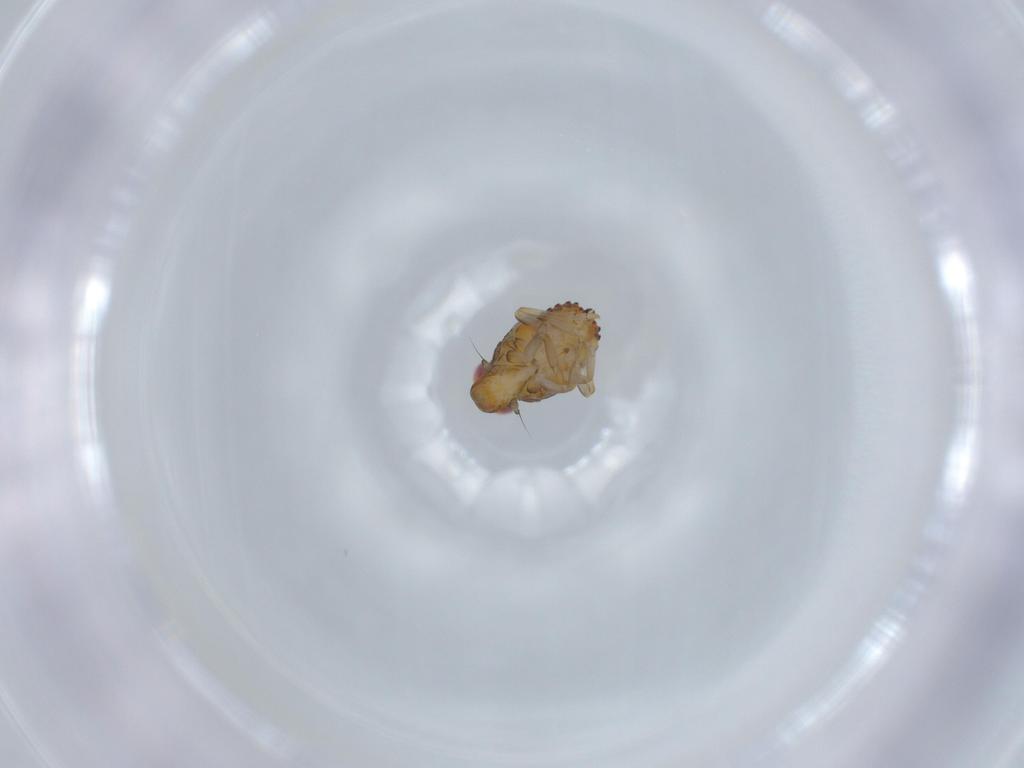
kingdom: Animalia
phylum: Arthropoda
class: Insecta
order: Hemiptera
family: Issidae
